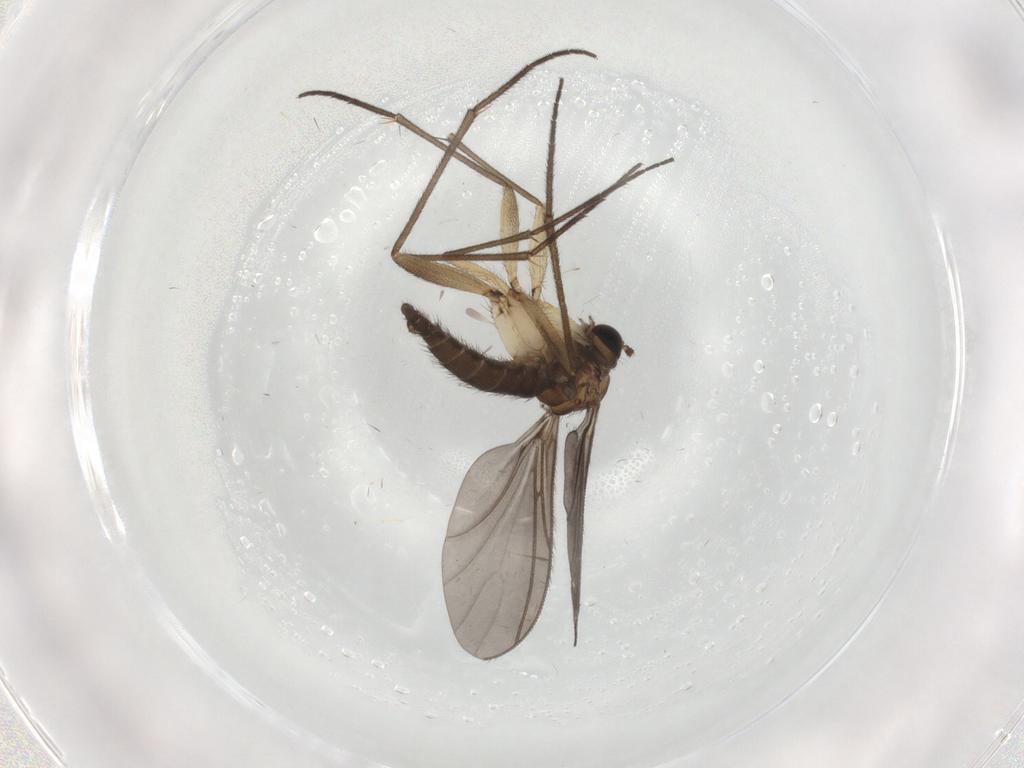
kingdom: Animalia
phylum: Arthropoda
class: Insecta
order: Diptera
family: Sciaridae
